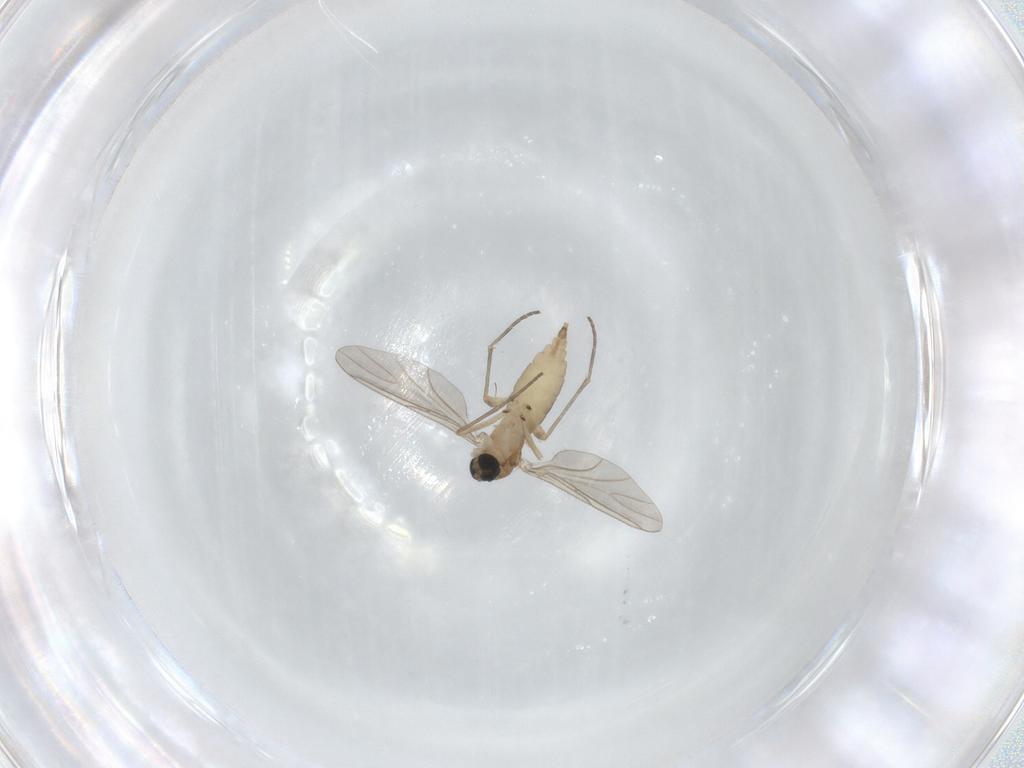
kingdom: Animalia
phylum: Arthropoda
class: Insecta
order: Diptera
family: Sciaridae
